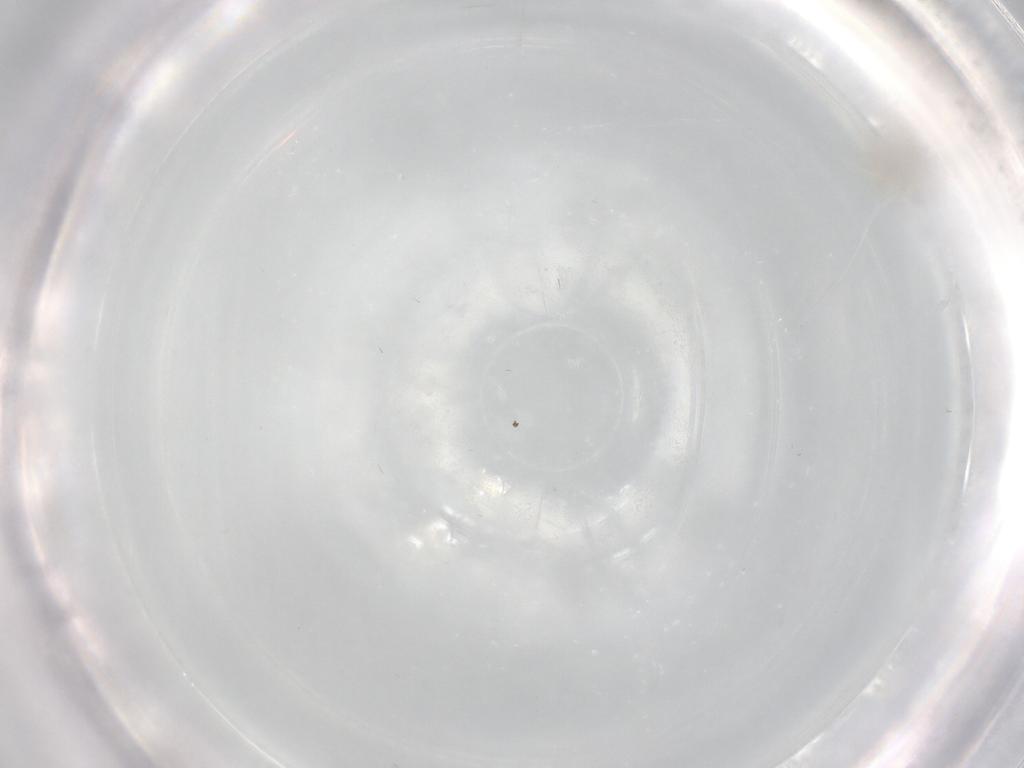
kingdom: Animalia
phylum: Arthropoda
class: Insecta
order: Diptera
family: Cecidomyiidae
